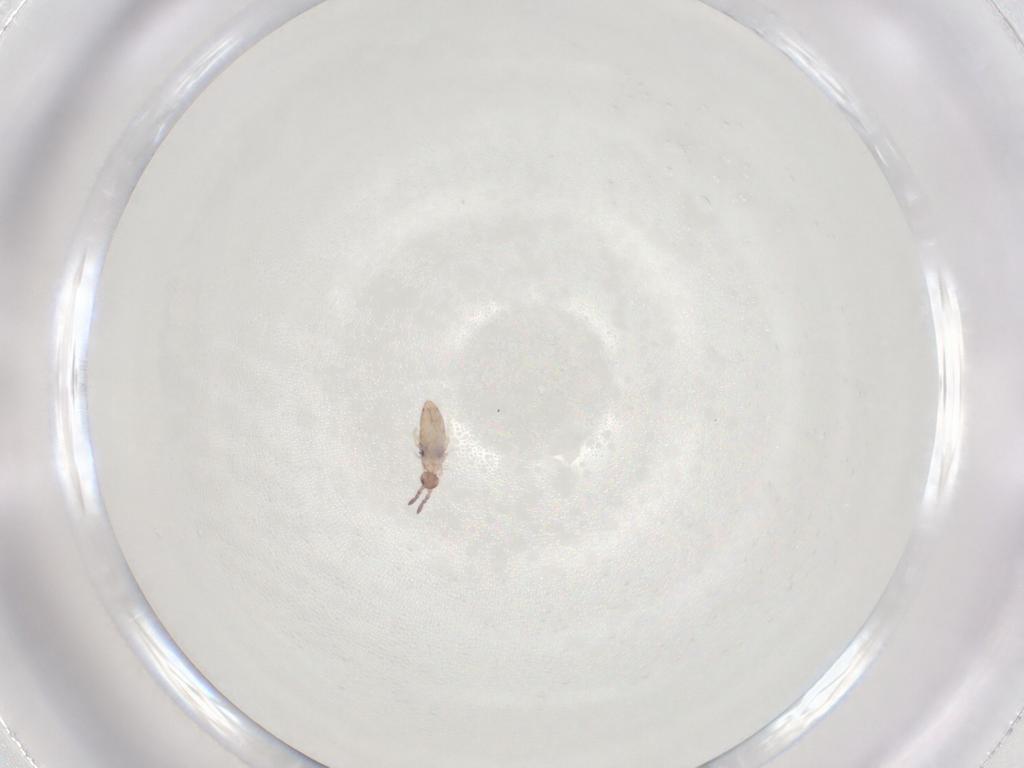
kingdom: Animalia
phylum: Arthropoda
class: Collembola
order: Entomobryomorpha
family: Entomobryidae
